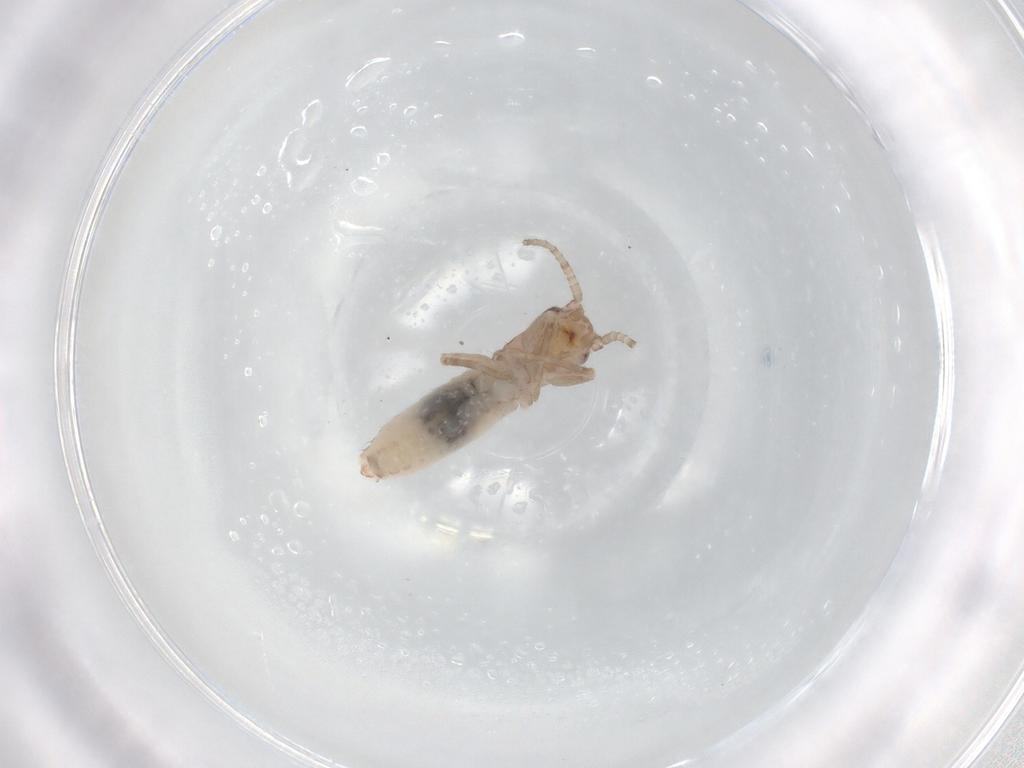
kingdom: Animalia
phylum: Arthropoda
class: Insecta
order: Orthoptera
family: Mogoplistidae
